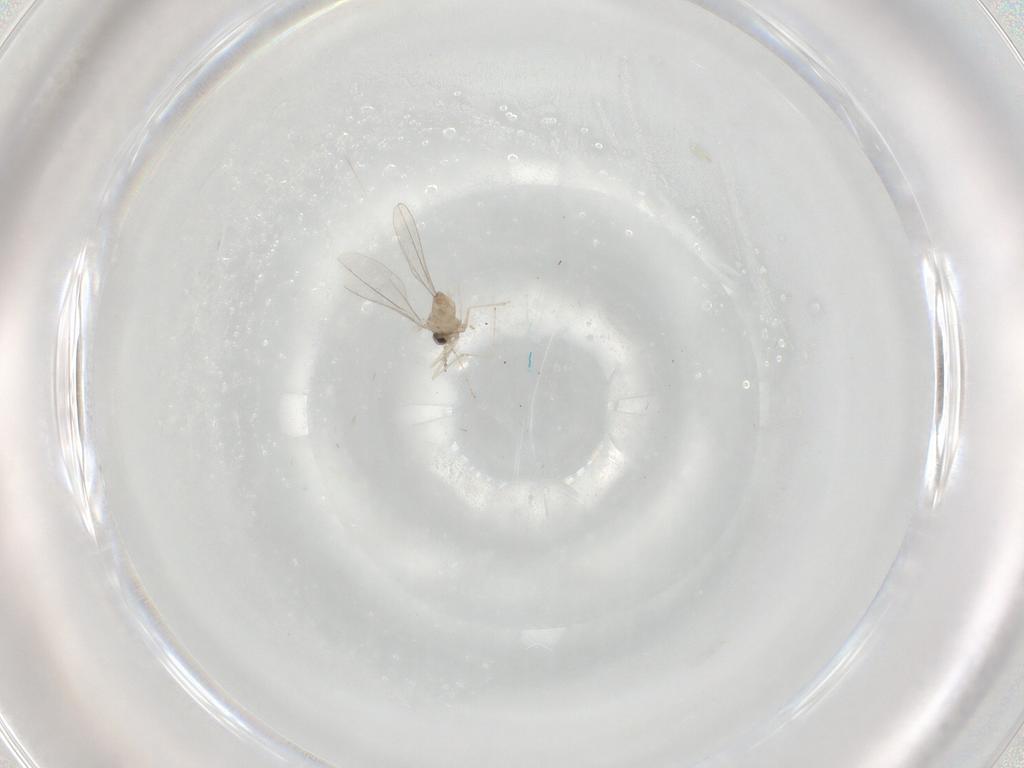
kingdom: Animalia
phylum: Arthropoda
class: Insecta
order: Diptera
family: Cecidomyiidae
